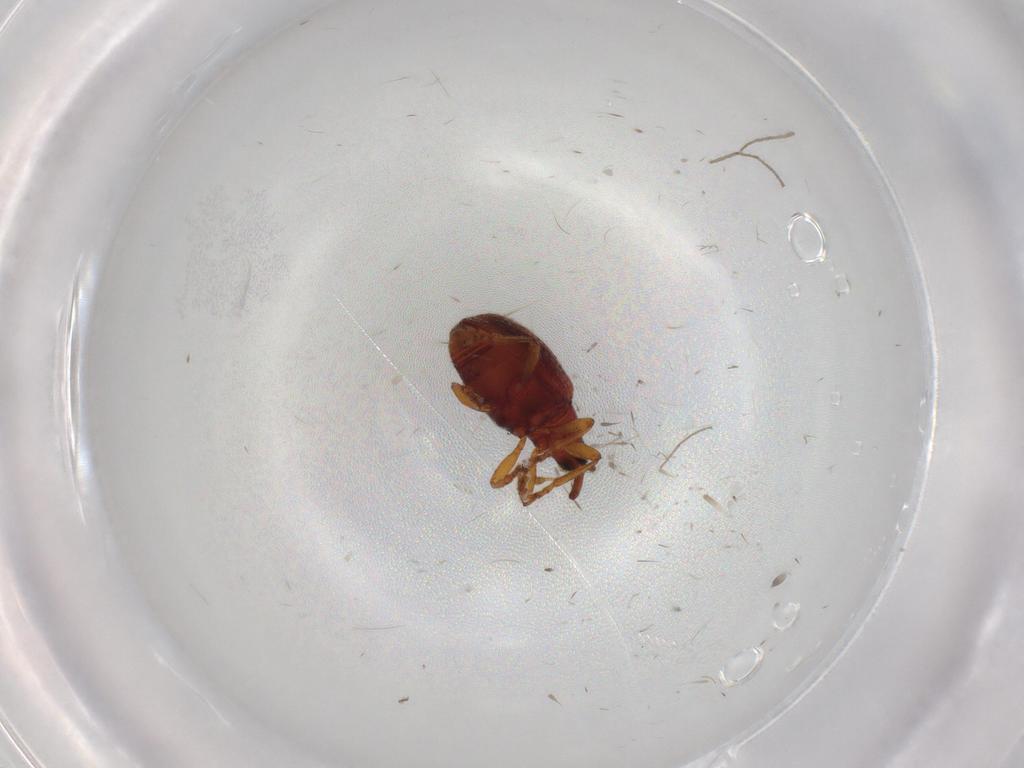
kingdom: Animalia
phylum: Arthropoda
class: Insecta
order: Coleoptera
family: Brentidae
